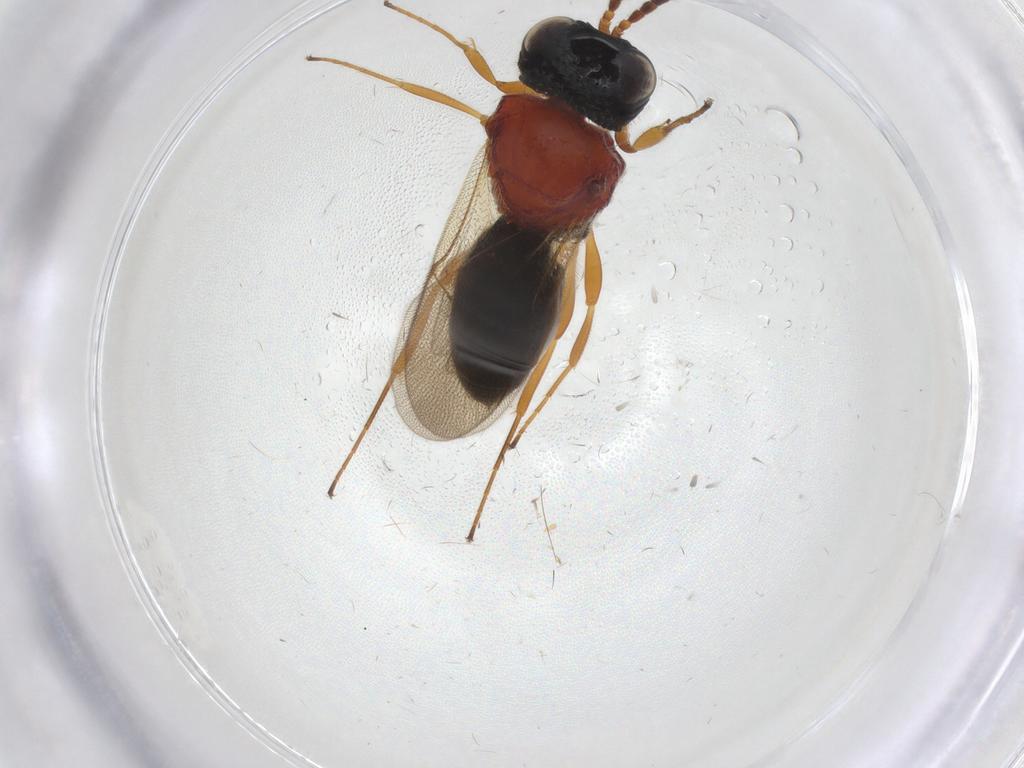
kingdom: Animalia
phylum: Arthropoda
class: Insecta
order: Hymenoptera
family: Scelionidae
